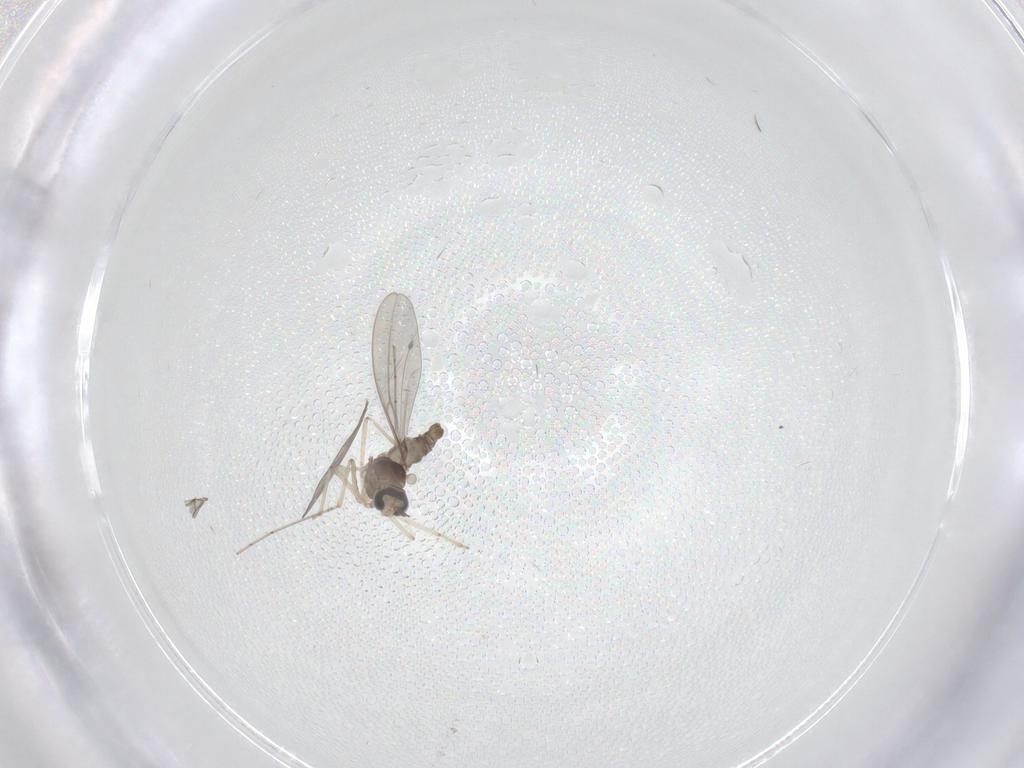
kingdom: Animalia
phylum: Arthropoda
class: Insecta
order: Diptera
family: Cecidomyiidae
